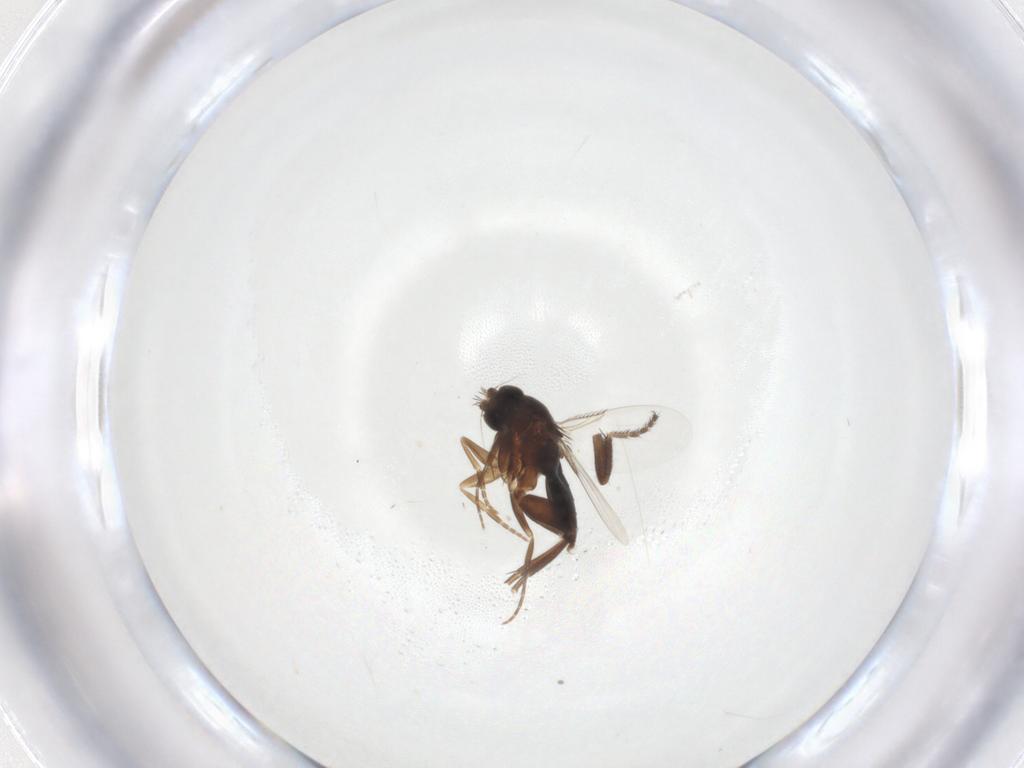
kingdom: Animalia
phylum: Arthropoda
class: Insecta
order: Diptera
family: Phoridae
